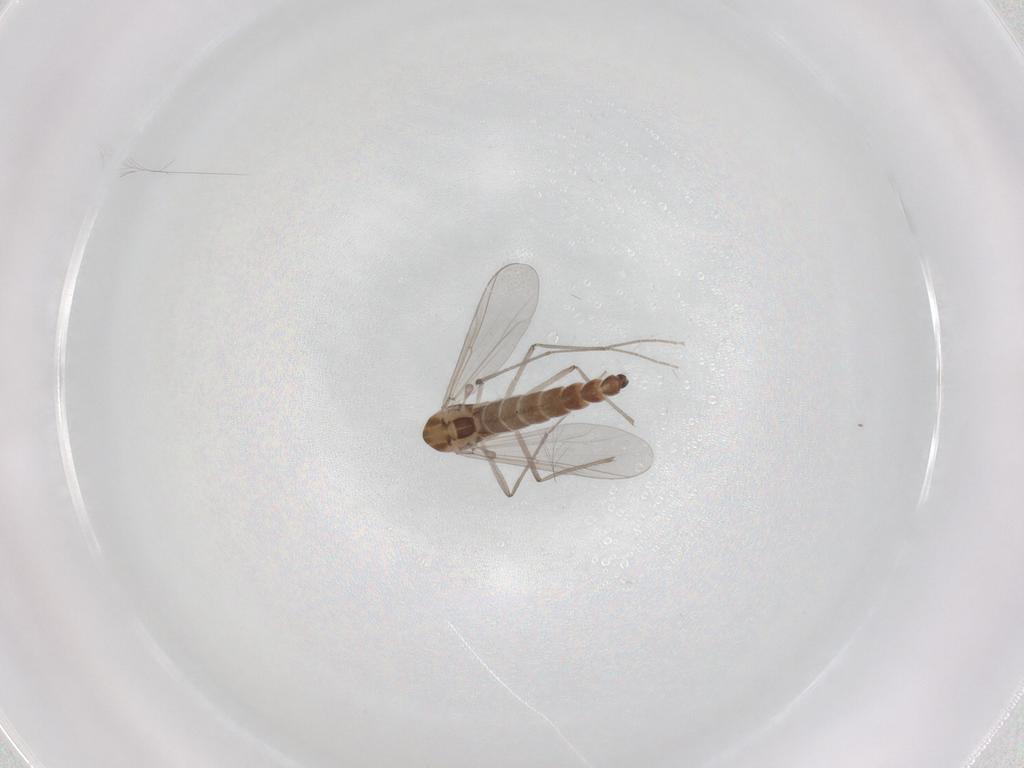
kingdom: Animalia
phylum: Arthropoda
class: Insecta
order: Diptera
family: Chironomidae
